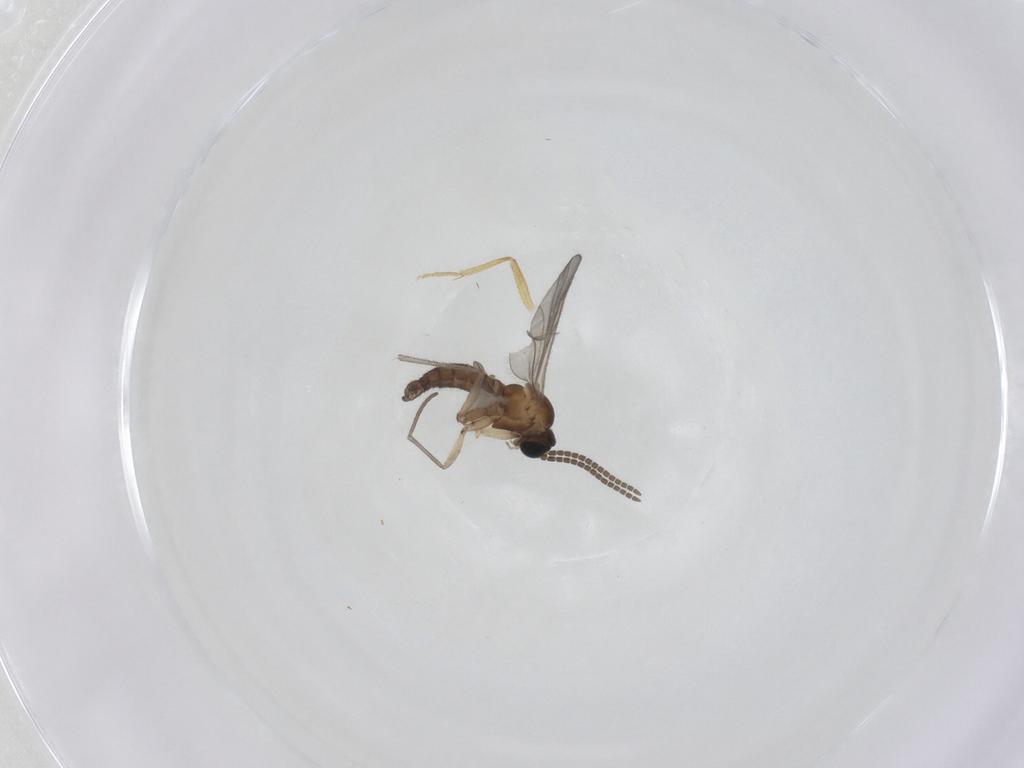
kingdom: Animalia
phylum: Arthropoda
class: Insecta
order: Diptera
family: Sciaridae
